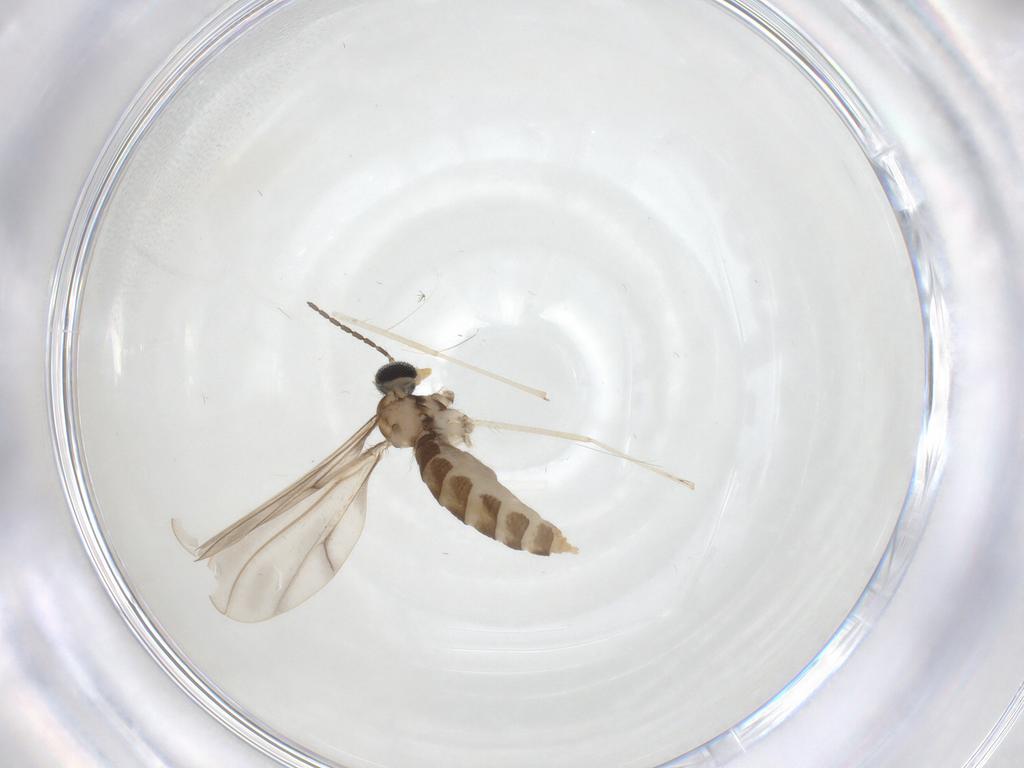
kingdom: Animalia
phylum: Arthropoda
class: Insecta
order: Diptera
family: Cecidomyiidae
